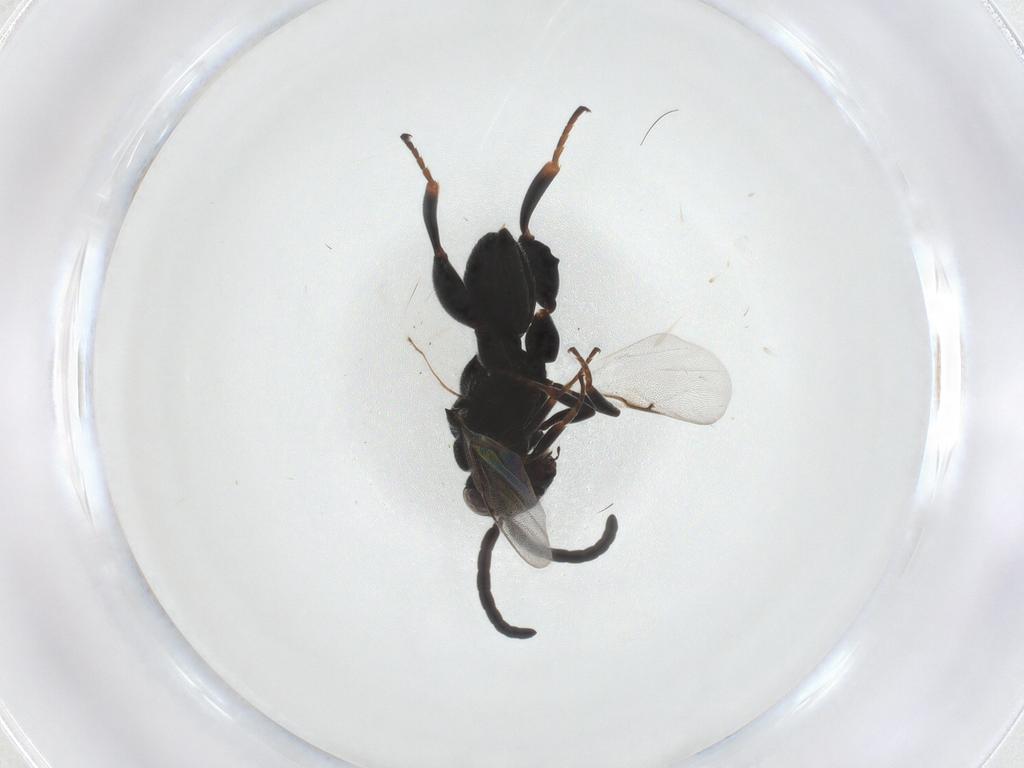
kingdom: Animalia
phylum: Arthropoda
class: Insecta
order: Hymenoptera
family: Chalcididae
